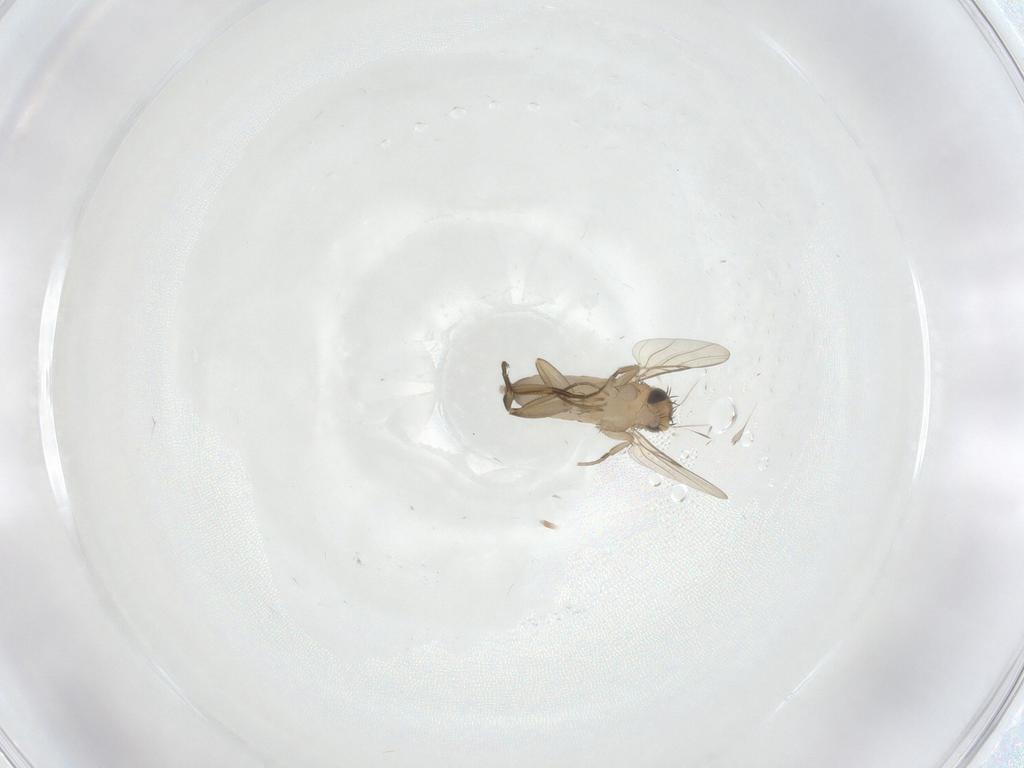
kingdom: Animalia
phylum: Arthropoda
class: Insecta
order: Diptera
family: Phoridae
